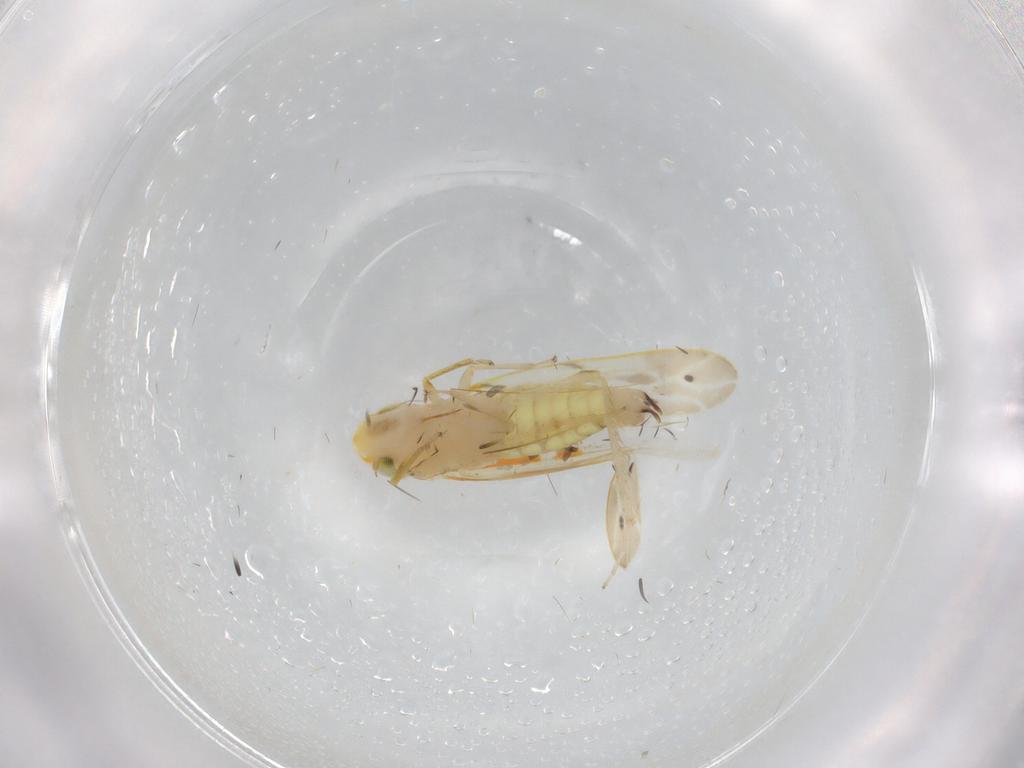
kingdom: Animalia
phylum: Arthropoda
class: Insecta
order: Hemiptera
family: Cicadellidae
